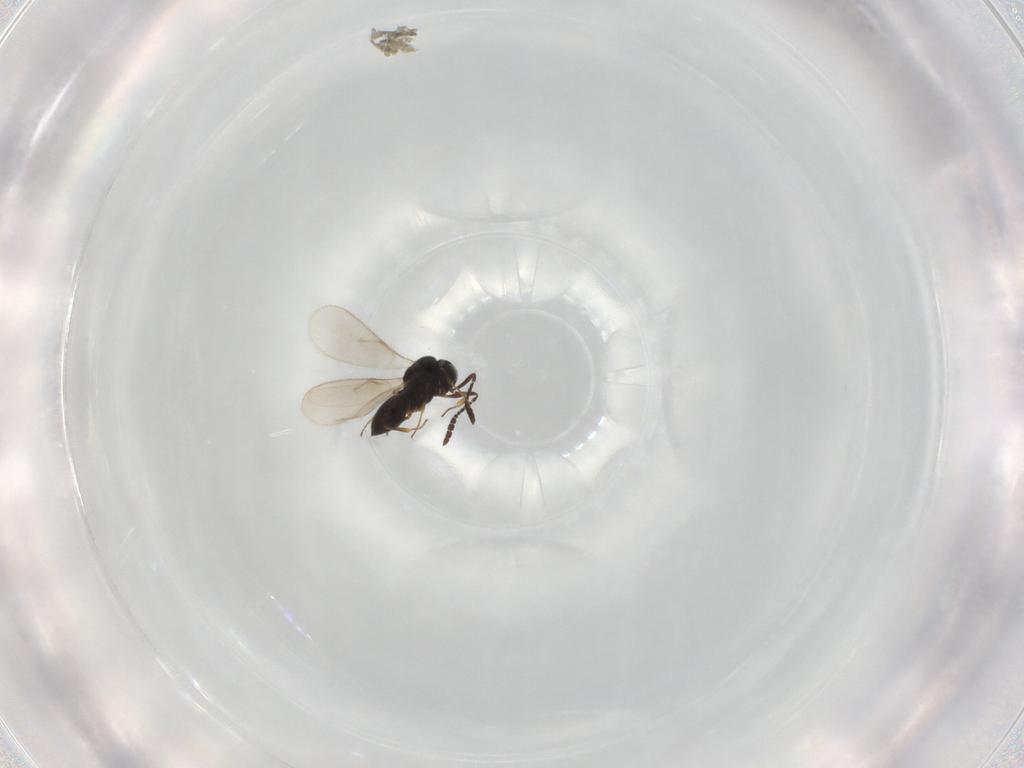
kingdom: Animalia
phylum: Arthropoda
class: Insecta
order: Hymenoptera
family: Scelionidae
